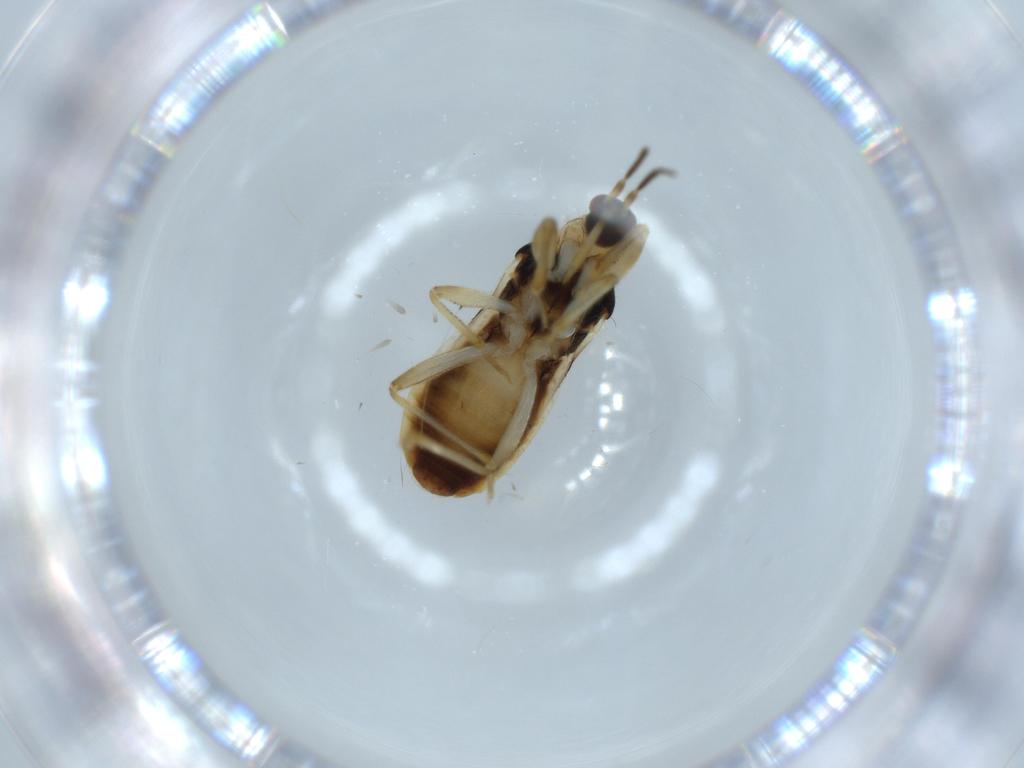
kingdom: Animalia
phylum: Arthropoda
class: Insecta
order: Hemiptera
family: Nabidae
